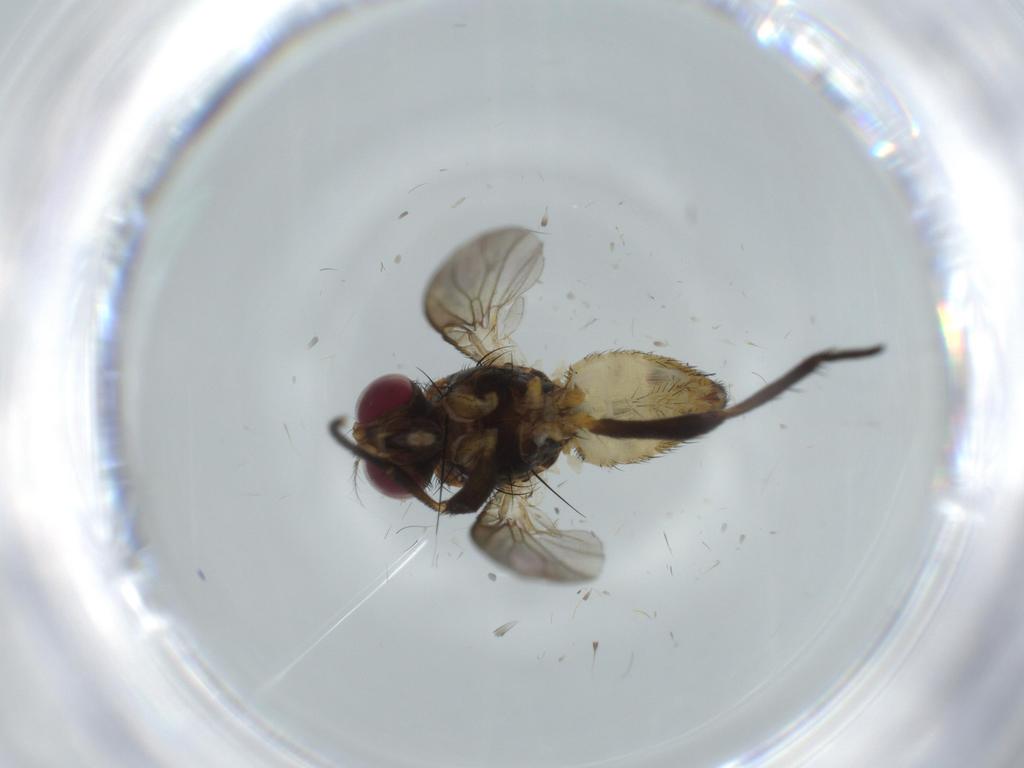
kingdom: Animalia
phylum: Arthropoda
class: Insecta
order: Diptera
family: Anthomyiidae
